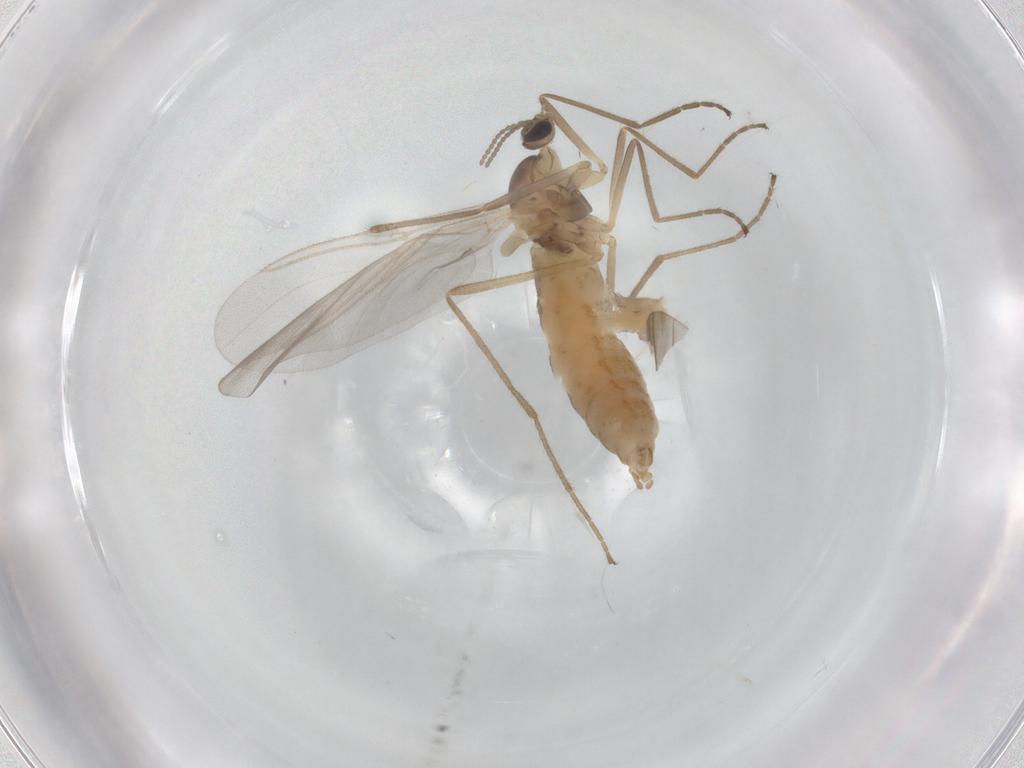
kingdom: Animalia
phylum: Arthropoda
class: Insecta
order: Diptera
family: Cecidomyiidae
